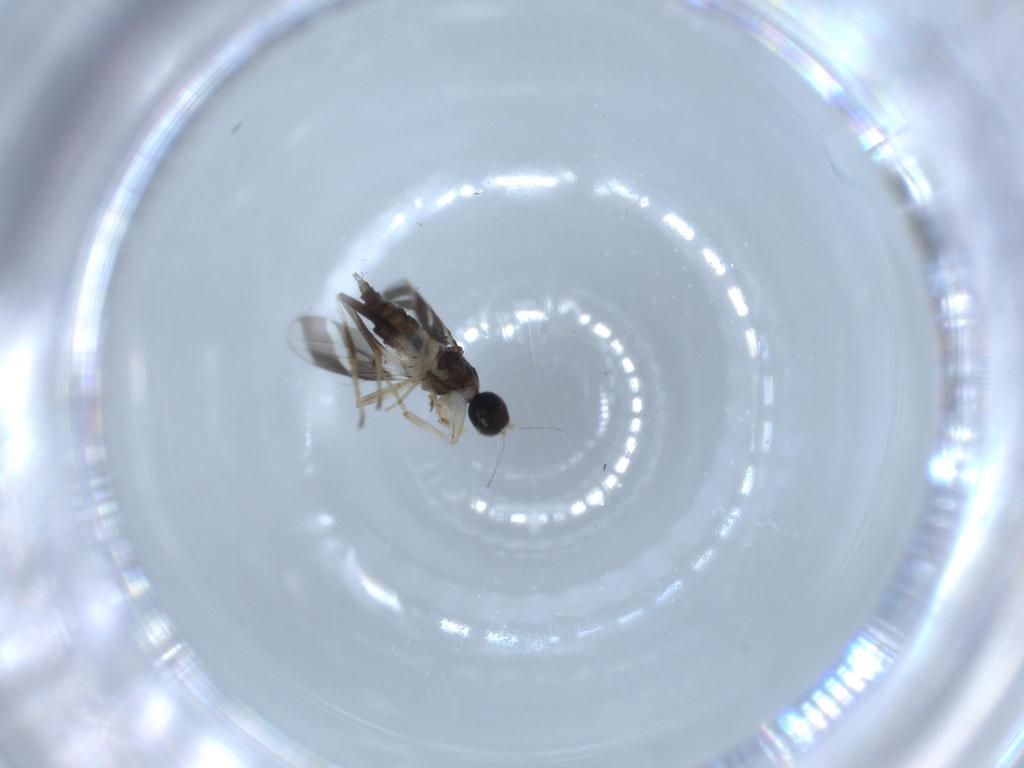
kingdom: Animalia
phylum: Arthropoda
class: Insecta
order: Diptera
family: Hybotidae
